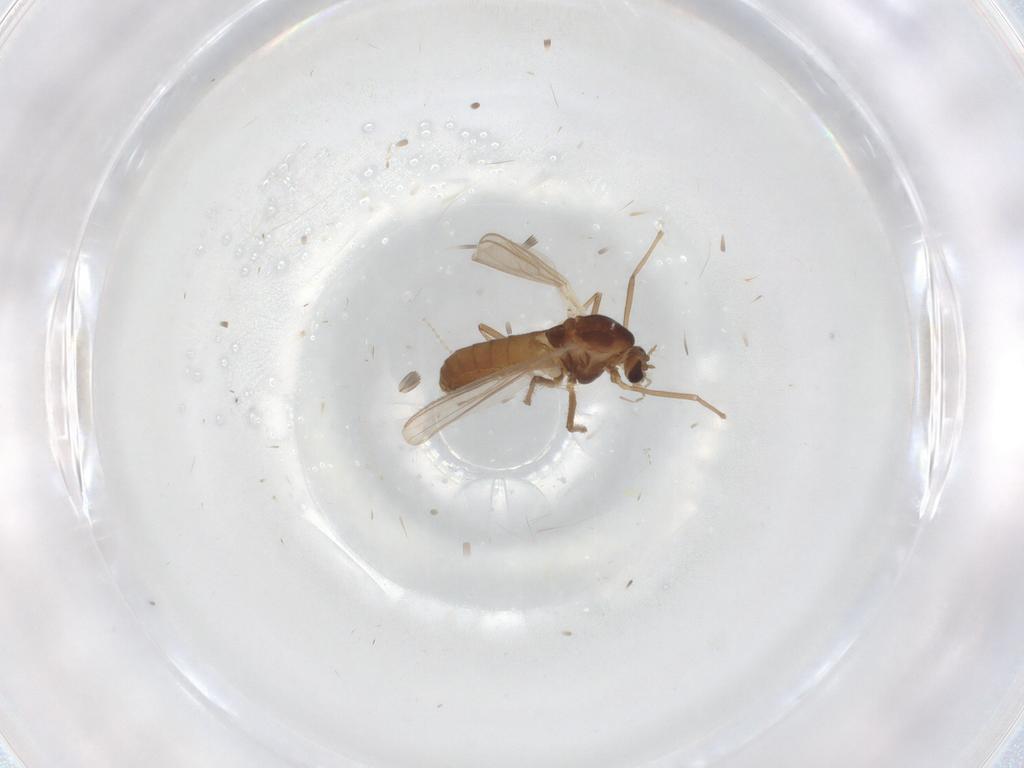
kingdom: Animalia
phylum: Arthropoda
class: Insecta
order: Diptera
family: Chironomidae
